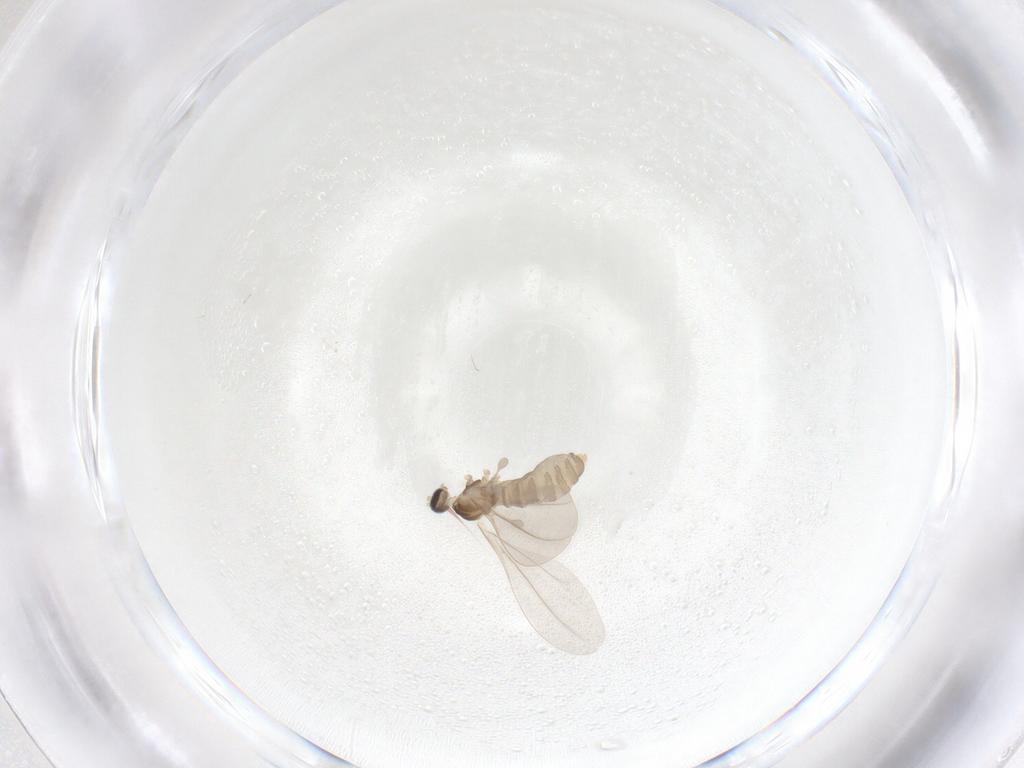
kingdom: Animalia
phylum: Arthropoda
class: Insecta
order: Diptera
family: Cecidomyiidae
